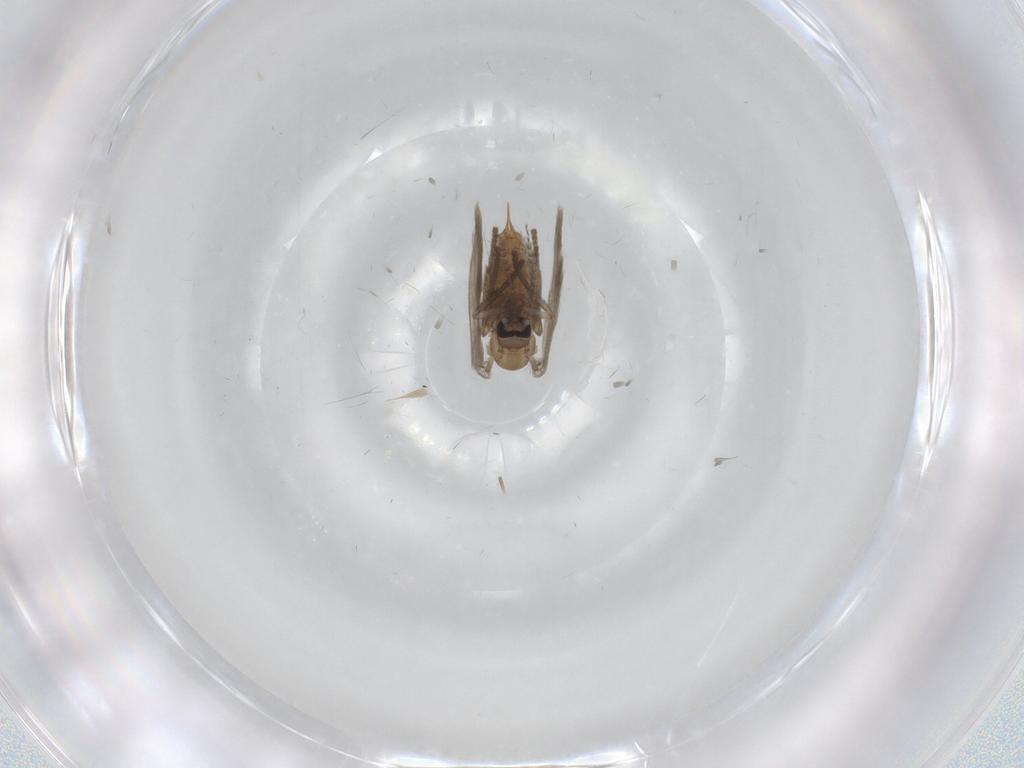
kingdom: Animalia
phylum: Arthropoda
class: Insecta
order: Diptera
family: Psychodidae
